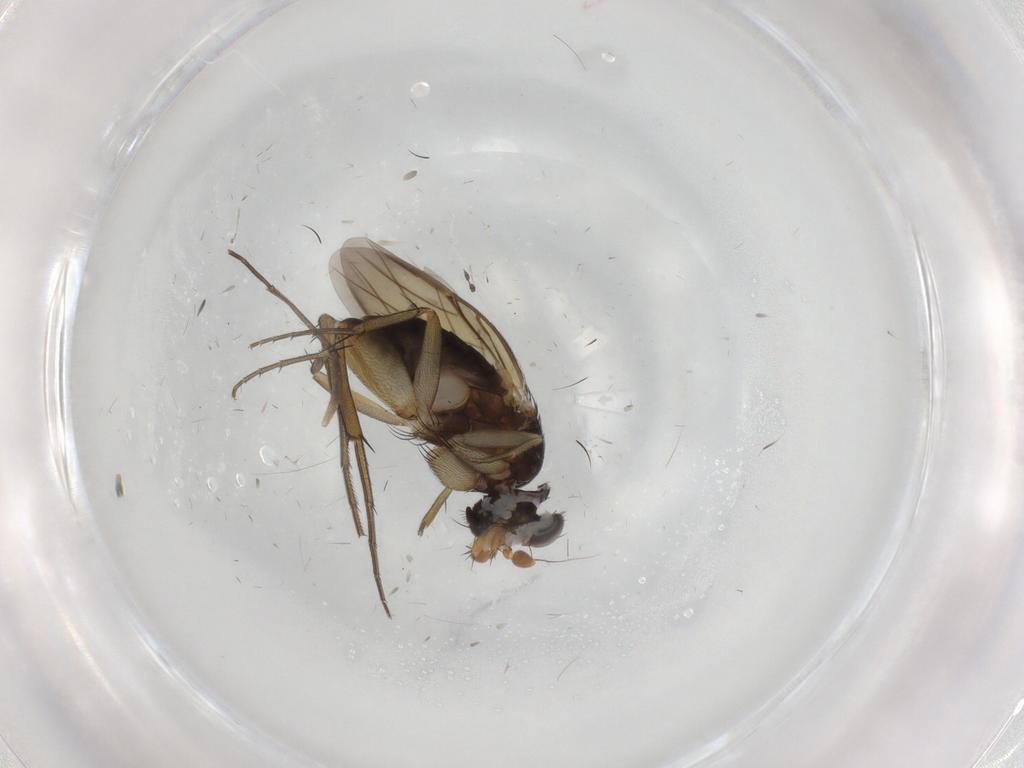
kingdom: Animalia
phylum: Arthropoda
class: Insecta
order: Diptera
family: Phoridae
